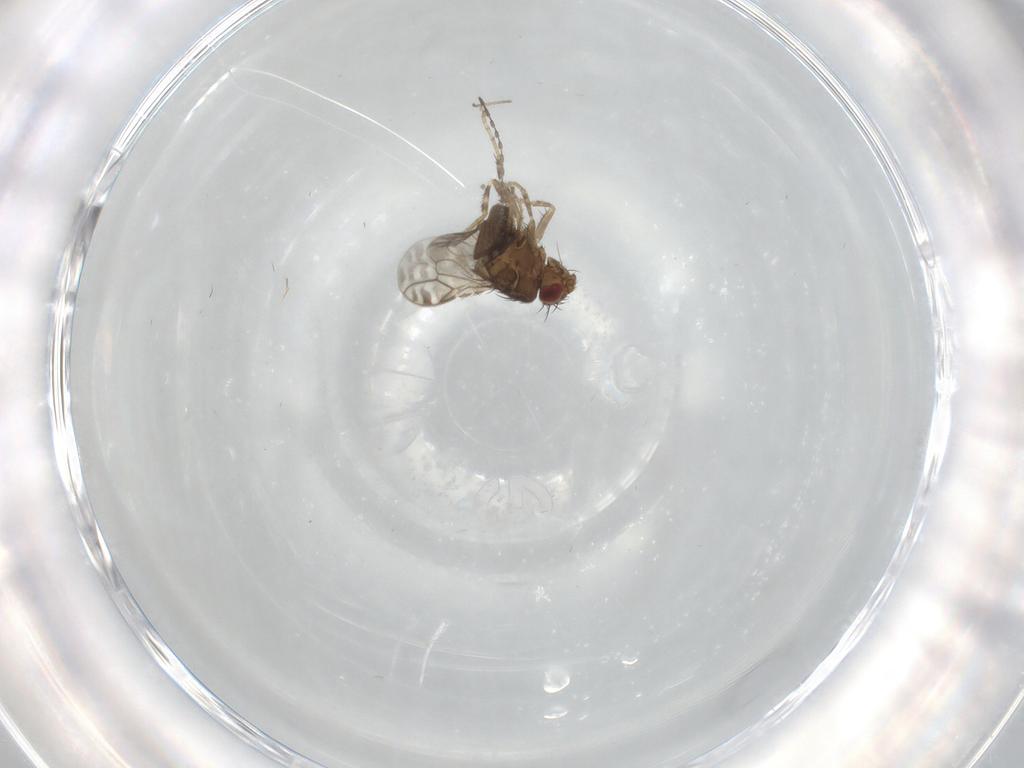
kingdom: Animalia
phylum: Arthropoda
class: Insecta
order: Diptera
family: Sphaeroceridae
